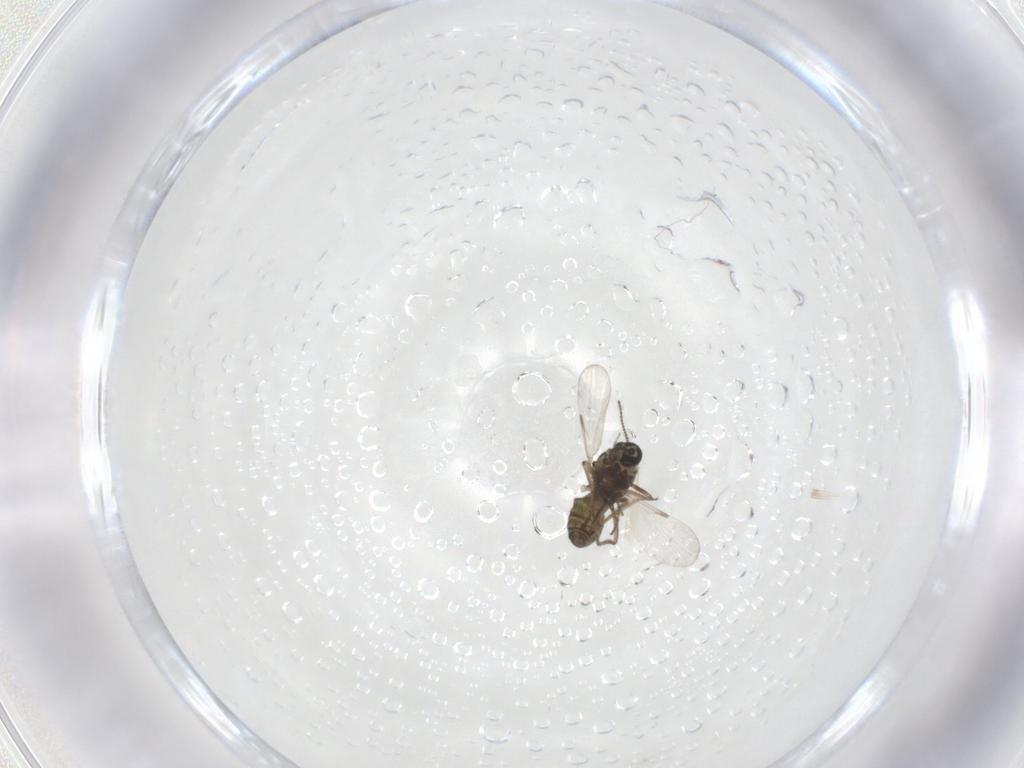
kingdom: Animalia
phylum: Arthropoda
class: Insecta
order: Diptera
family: Ceratopogonidae
